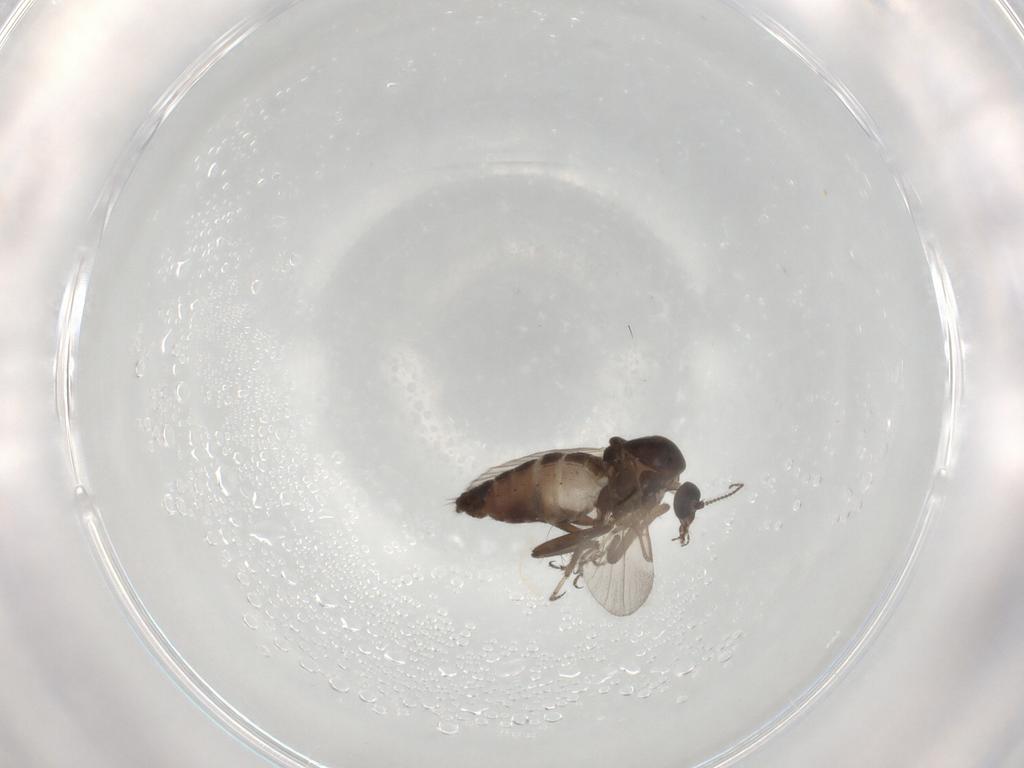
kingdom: Animalia
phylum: Arthropoda
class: Insecta
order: Diptera
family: Ceratopogonidae
